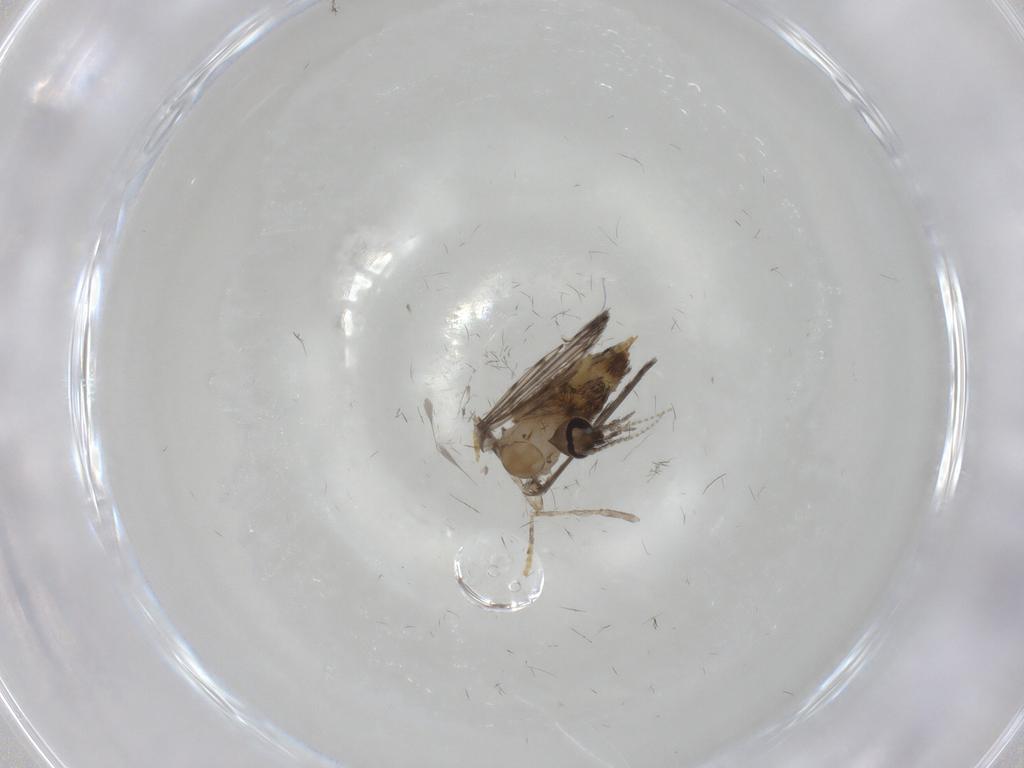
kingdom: Animalia
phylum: Arthropoda
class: Insecta
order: Diptera
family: Psychodidae
